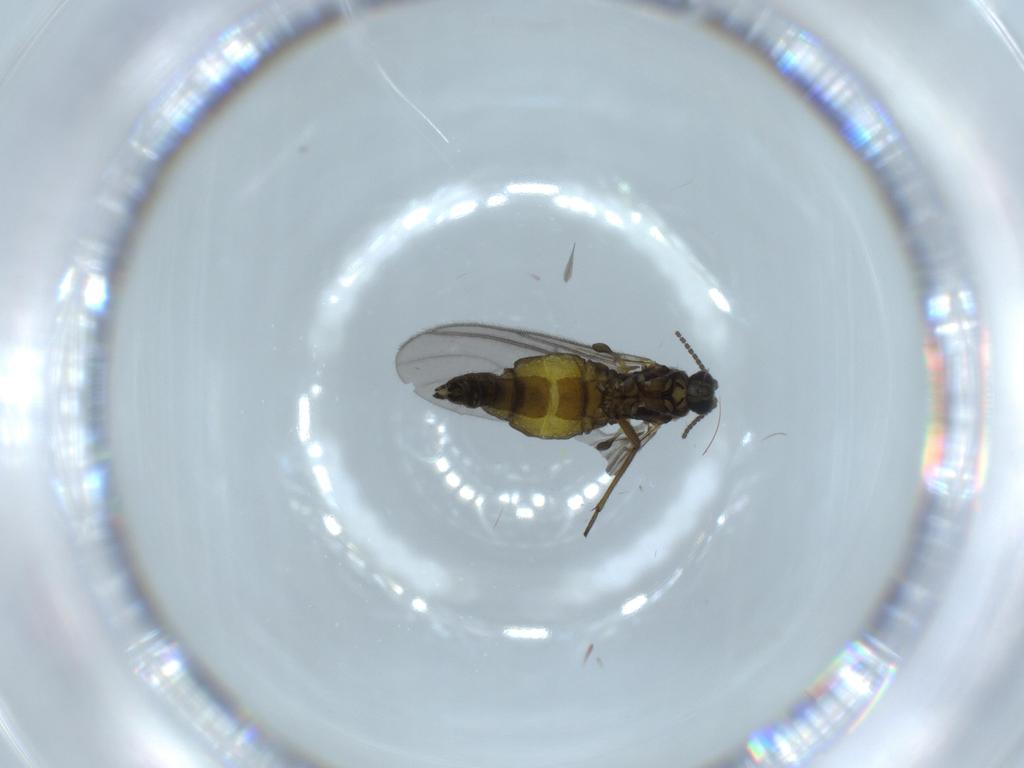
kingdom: Animalia
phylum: Arthropoda
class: Insecta
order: Diptera
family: Sciaridae
